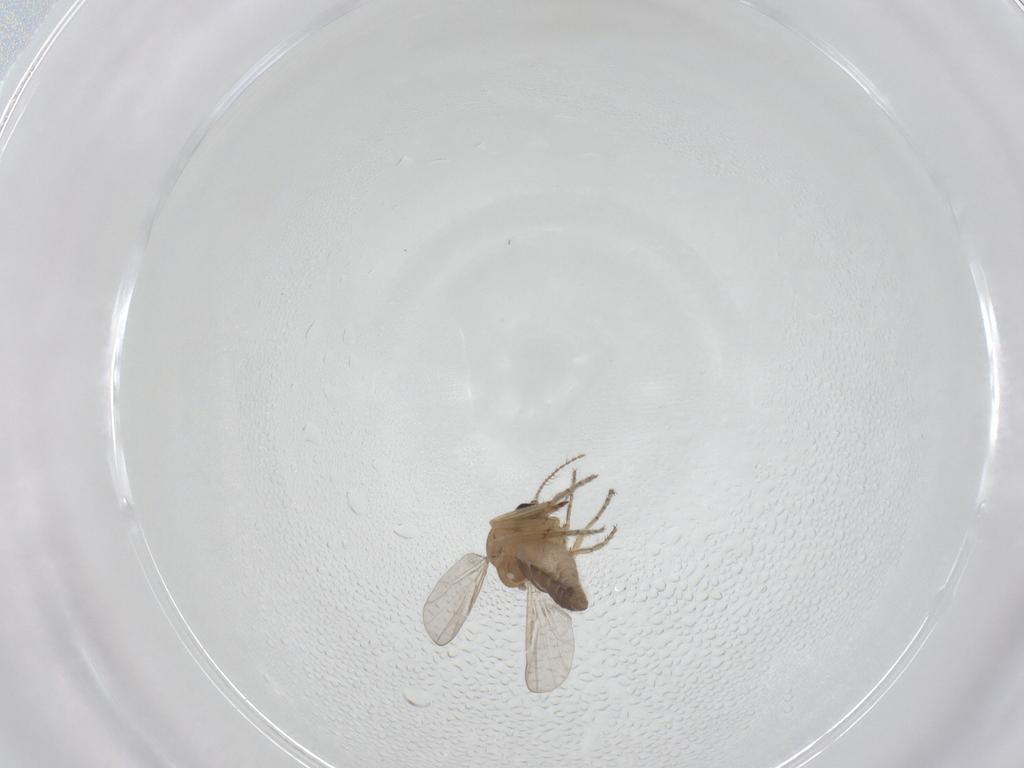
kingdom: Animalia
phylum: Arthropoda
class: Insecta
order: Diptera
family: Ceratopogonidae
